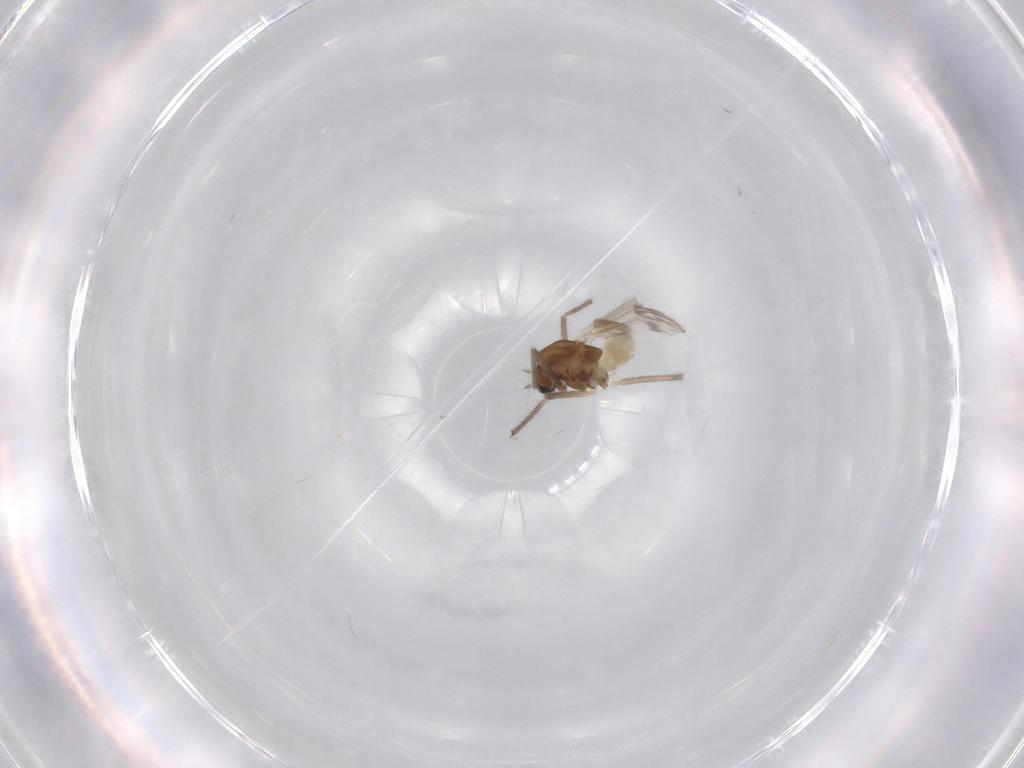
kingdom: Animalia
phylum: Arthropoda
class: Insecta
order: Diptera
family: Chironomidae
